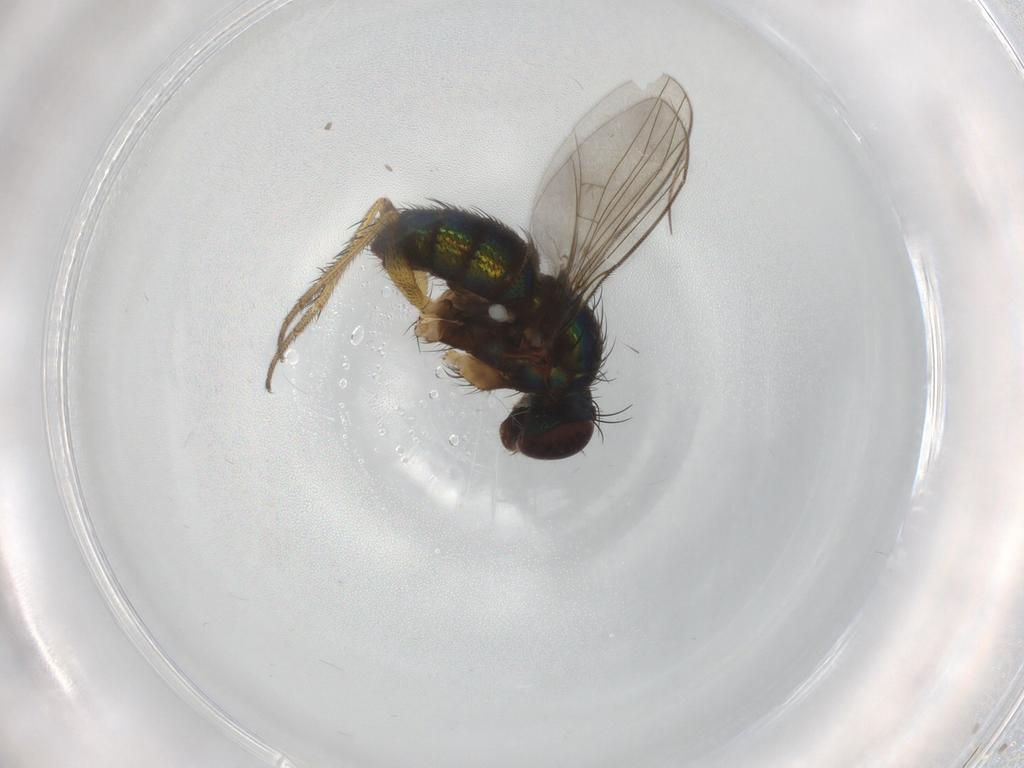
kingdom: Animalia
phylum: Arthropoda
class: Insecta
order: Diptera
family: Dolichopodidae
